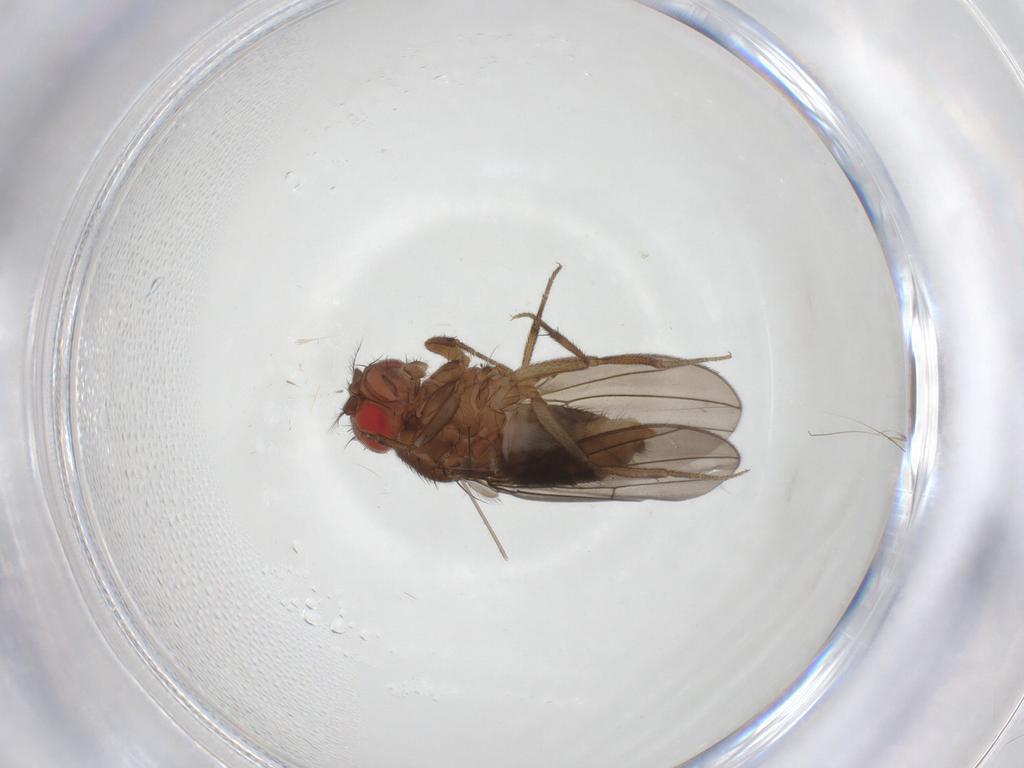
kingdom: Animalia
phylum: Arthropoda
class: Insecta
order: Diptera
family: Drosophilidae
